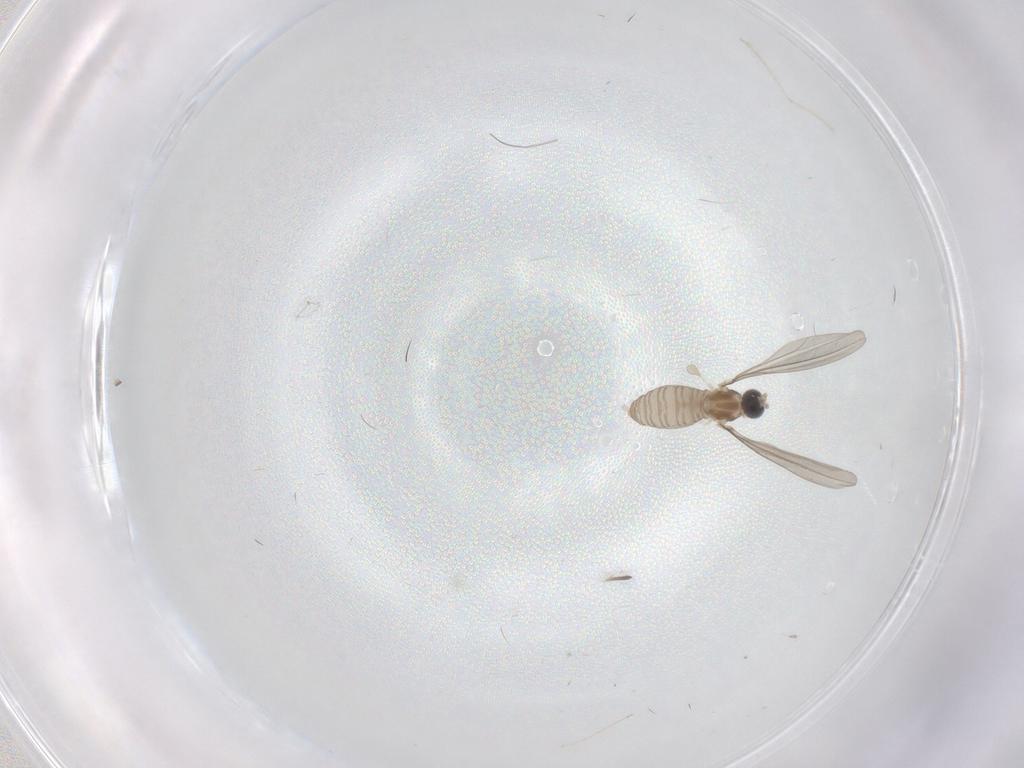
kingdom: Animalia
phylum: Arthropoda
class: Insecta
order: Diptera
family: Cecidomyiidae
